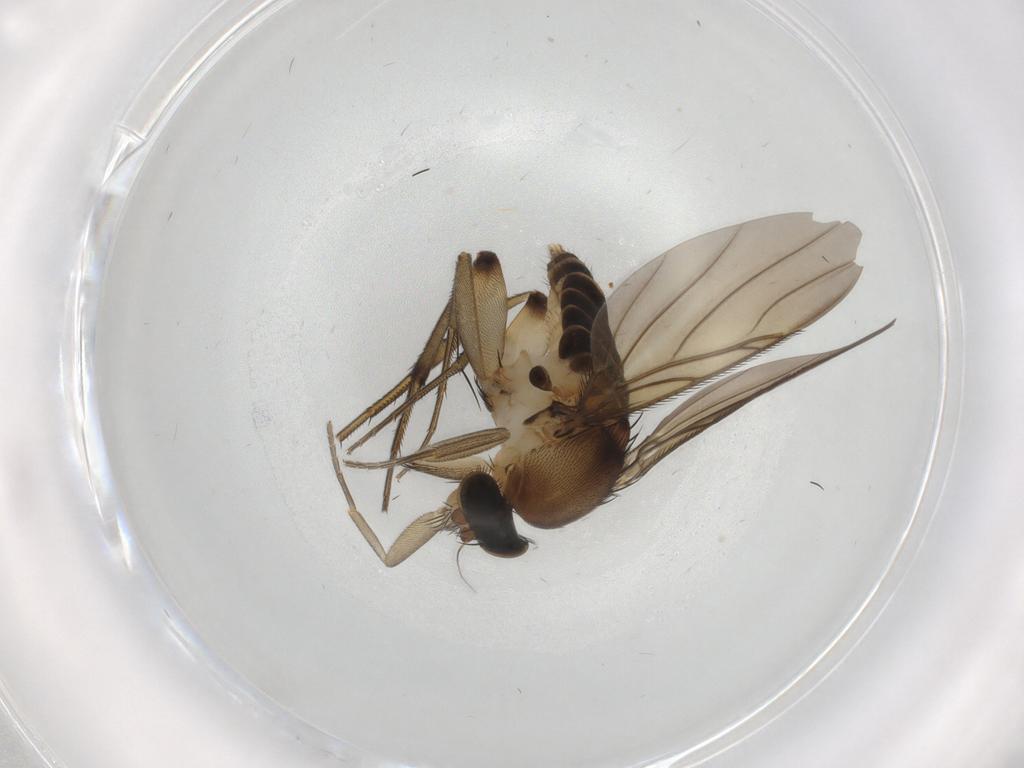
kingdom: Animalia
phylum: Arthropoda
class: Insecta
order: Diptera
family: Phoridae
